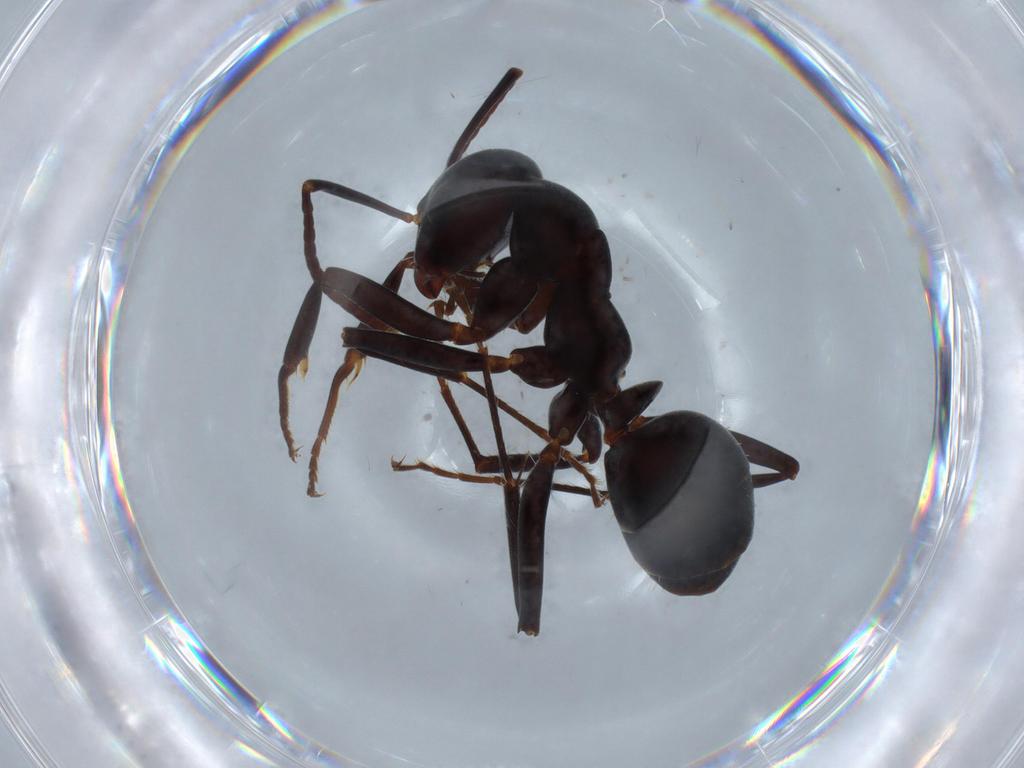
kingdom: Animalia
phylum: Arthropoda
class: Insecta
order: Hymenoptera
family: Formicidae
